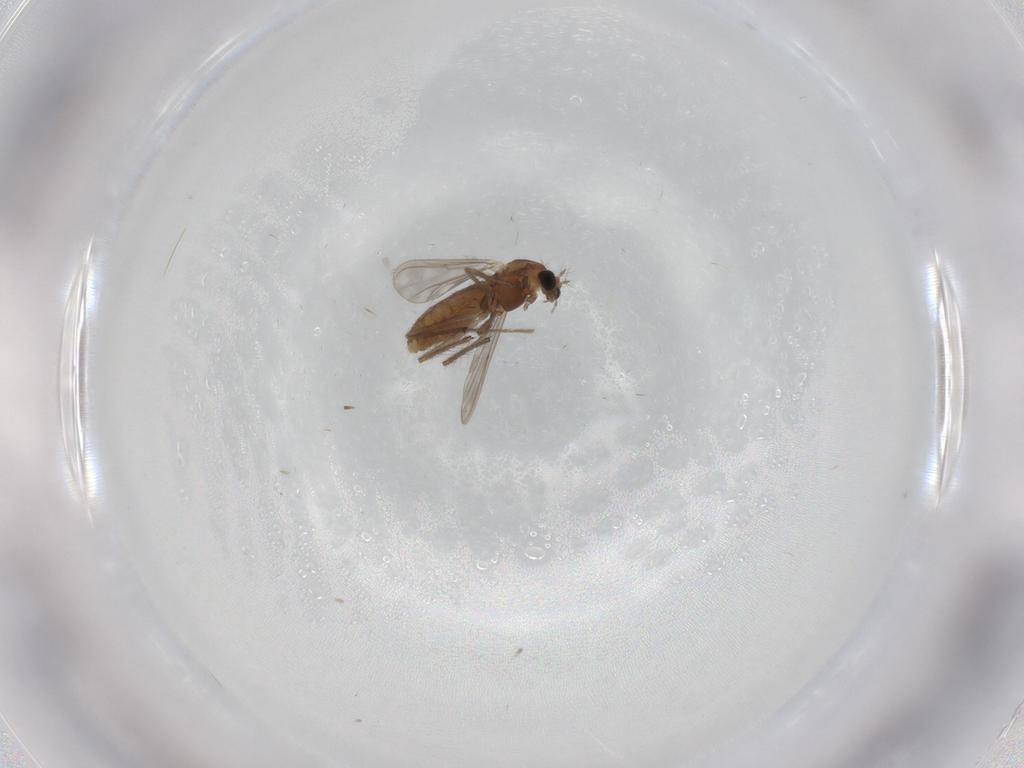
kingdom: Animalia
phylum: Arthropoda
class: Insecta
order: Diptera
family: Chironomidae
